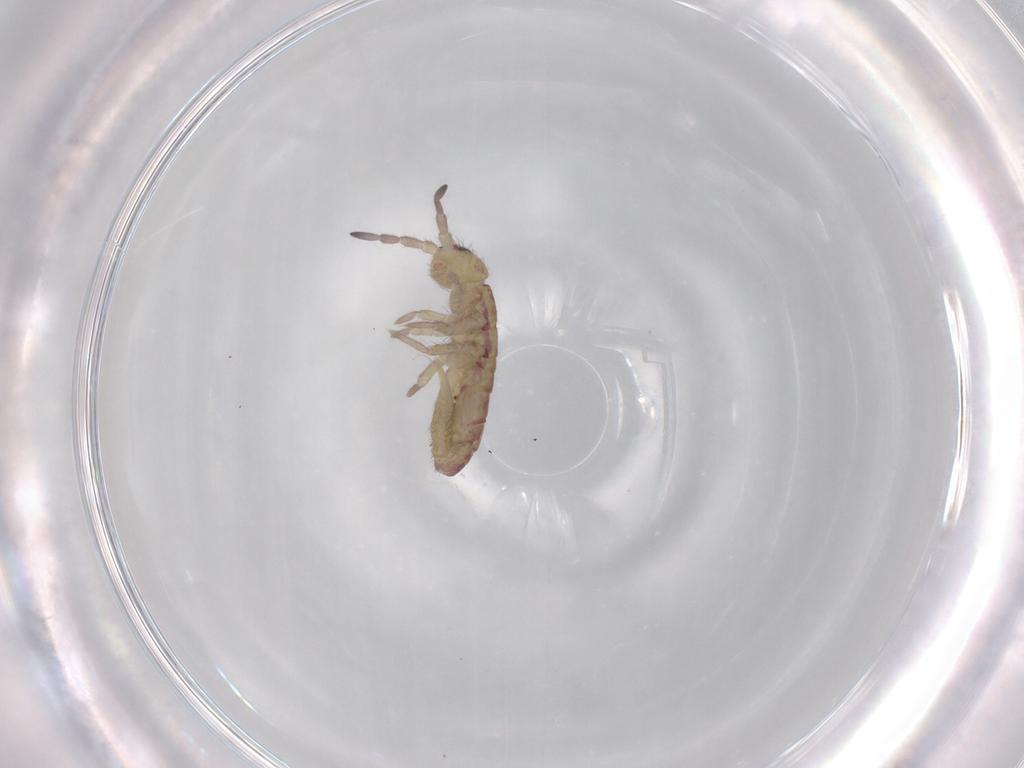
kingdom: Animalia
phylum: Arthropoda
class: Collembola
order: Entomobryomorpha
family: Isotomidae
